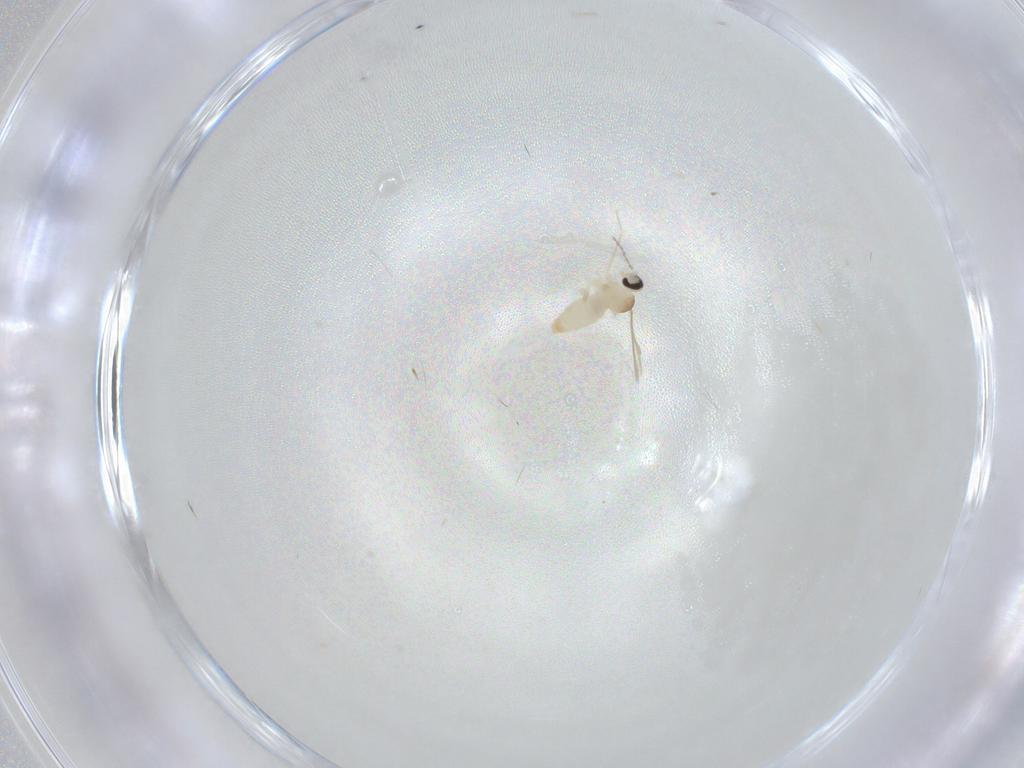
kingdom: Animalia
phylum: Arthropoda
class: Insecta
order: Diptera
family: Cecidomyiidae
